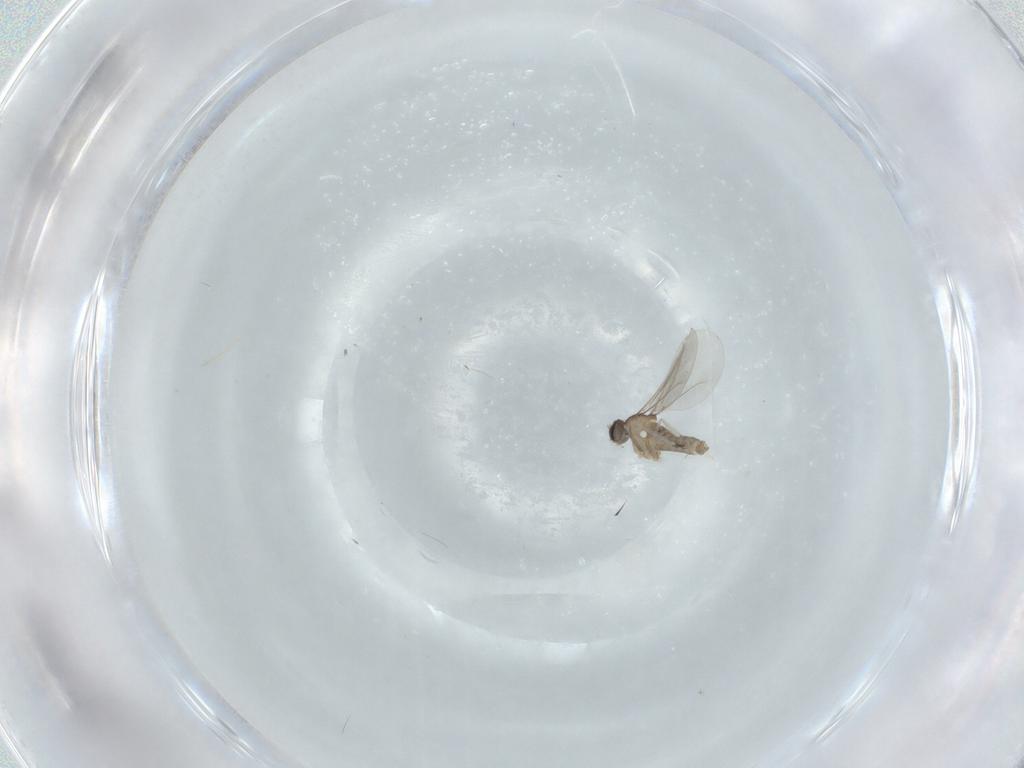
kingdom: Animalia
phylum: Arthropoda
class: Insecta
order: Diptera
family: Cecidomyiidae
